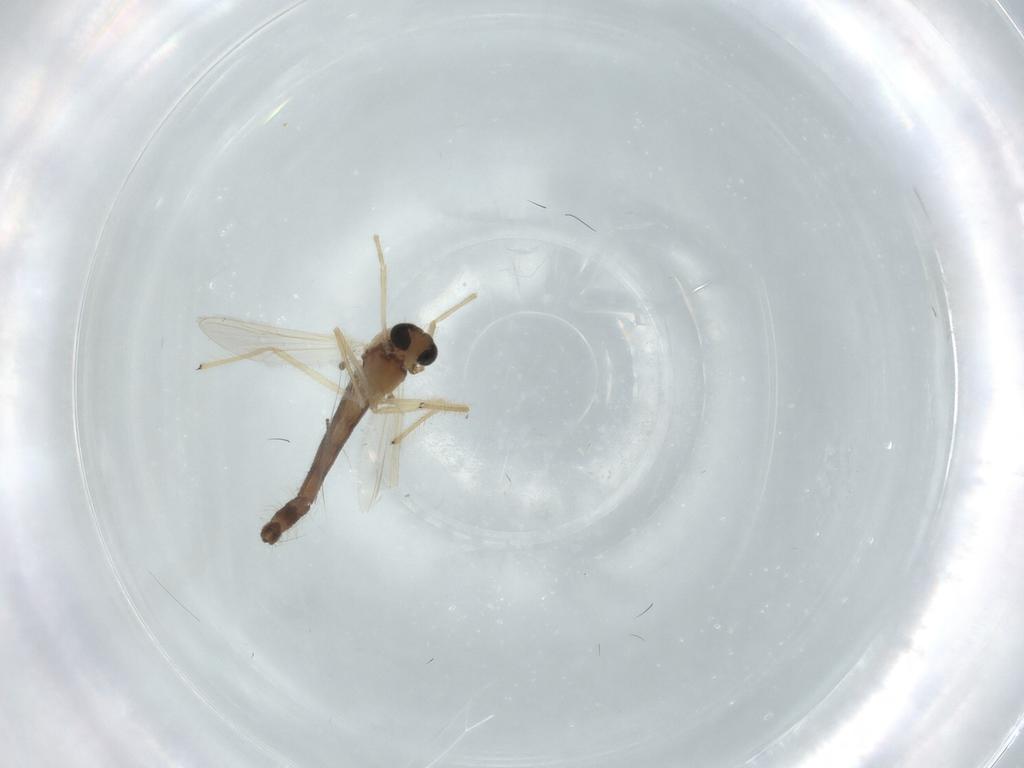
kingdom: Animalia
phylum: Arthropoda
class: Insecta
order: Diptera
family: Chironomidae
